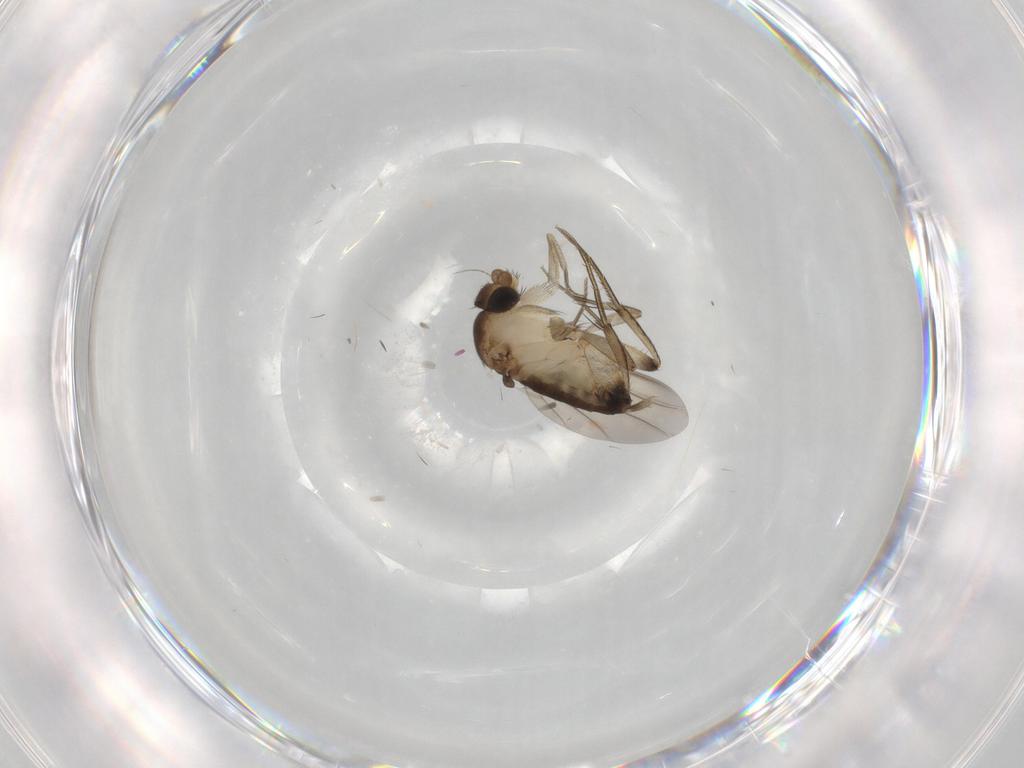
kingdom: Animalia
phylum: Arthropoda
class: Insecta
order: Diptera
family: Phoridae
